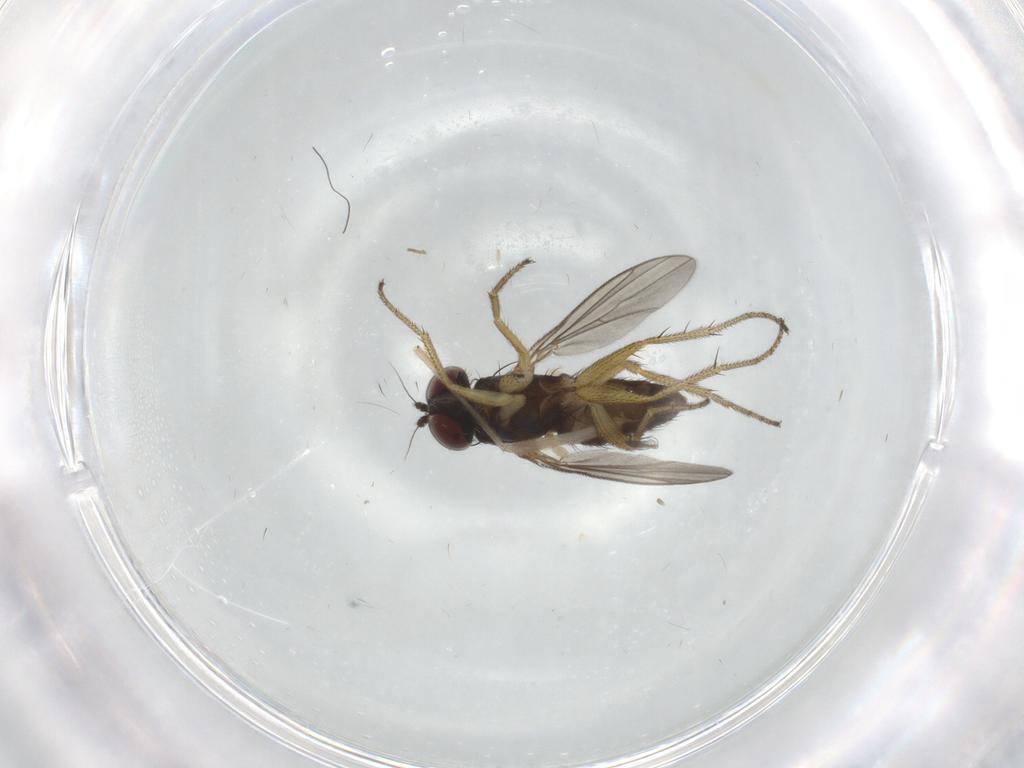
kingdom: Animalia
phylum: Arthropoda
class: Insecta
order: Diptera
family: Chironomidae
